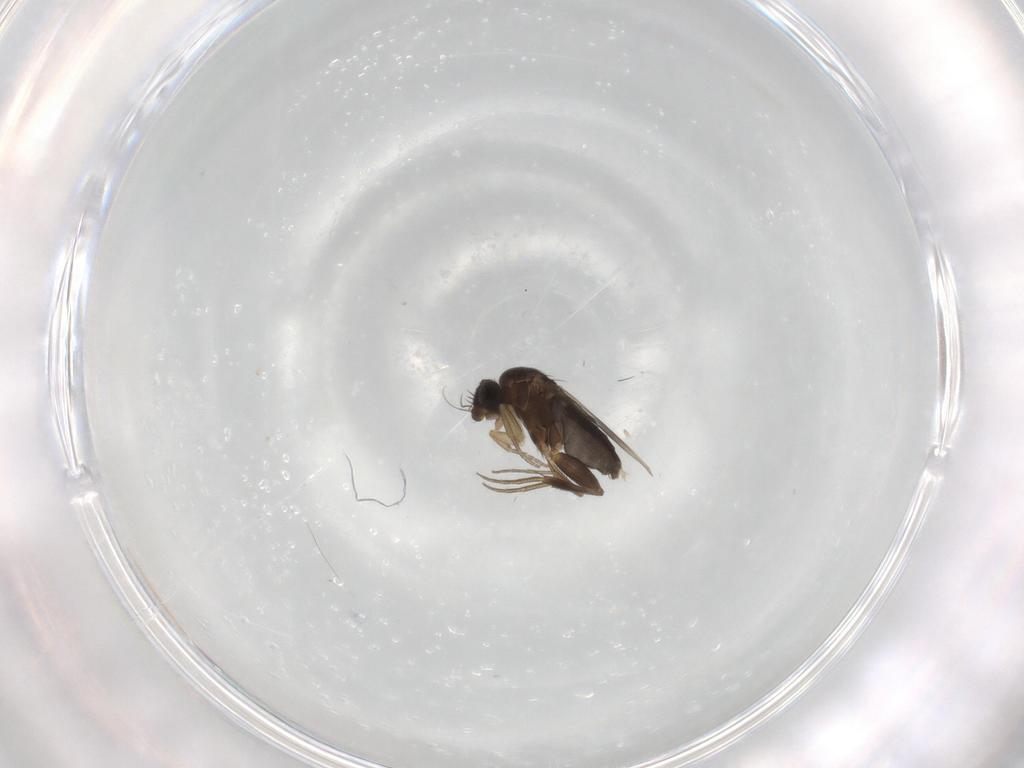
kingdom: Animalia
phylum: Arthropoda
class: Insecta
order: Diptera
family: Phoridae
